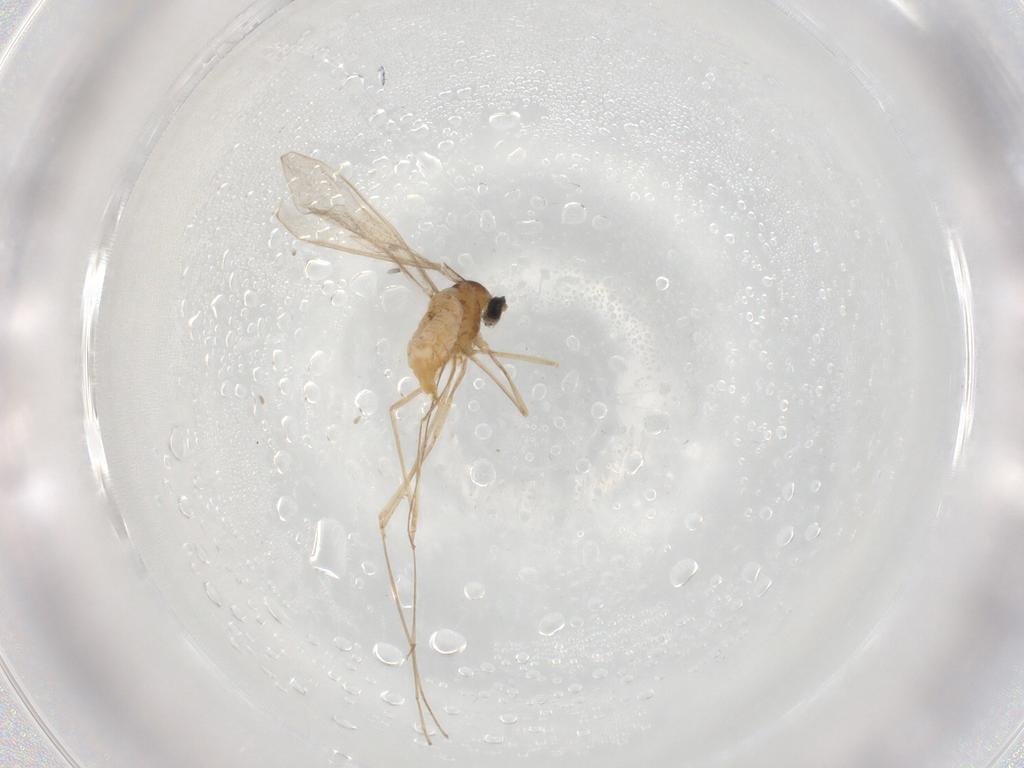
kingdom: Animalia
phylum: Arthropoda
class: Insecta
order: Diptera
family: Cecidomyiidae
